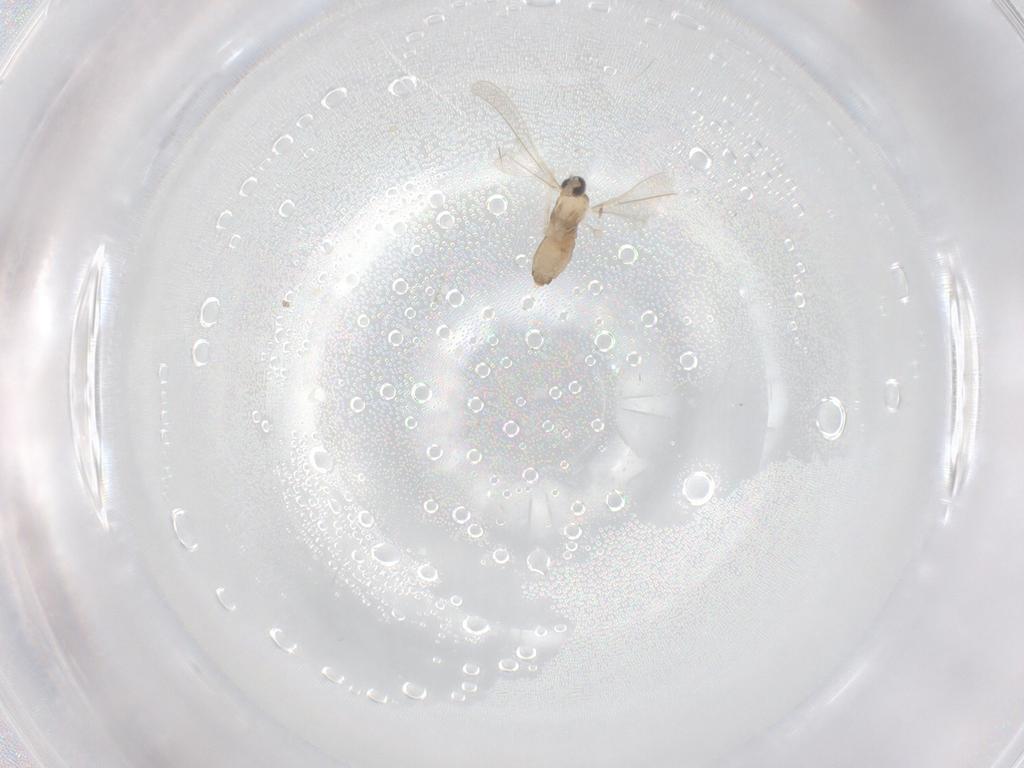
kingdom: Animalia
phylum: Arthropoda
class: Insecta
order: Diptera
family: Cecidomyiidae
